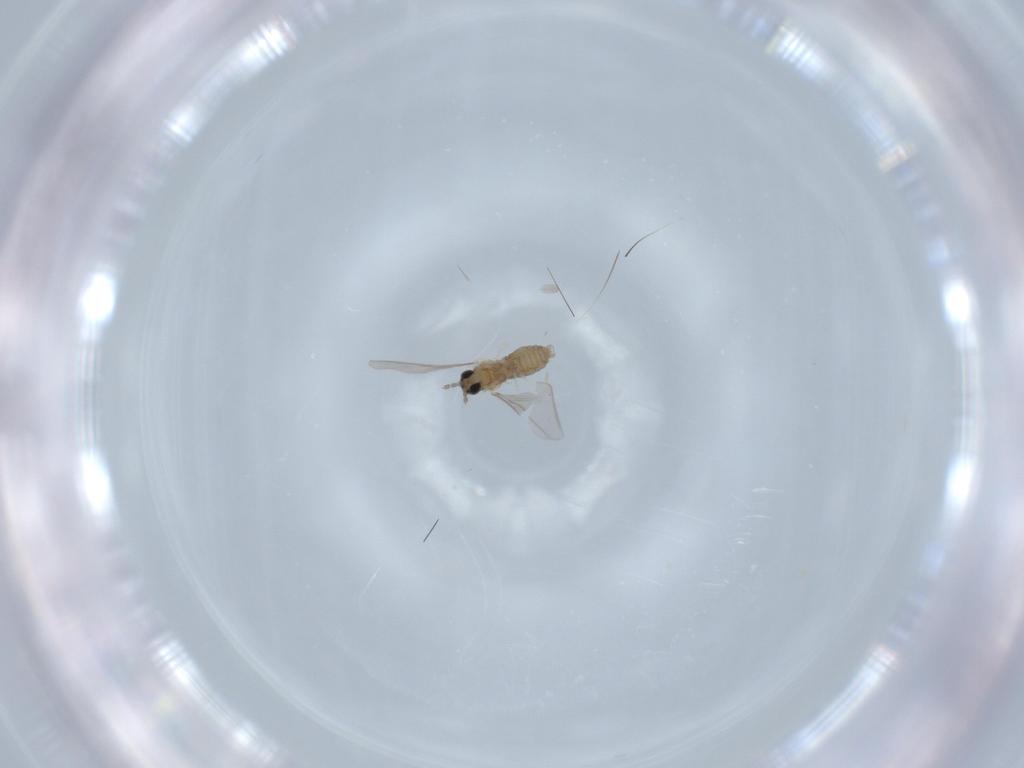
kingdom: Animalia
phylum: Arthropoda
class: Insecta
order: Diptera
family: Cecidomyiidae
